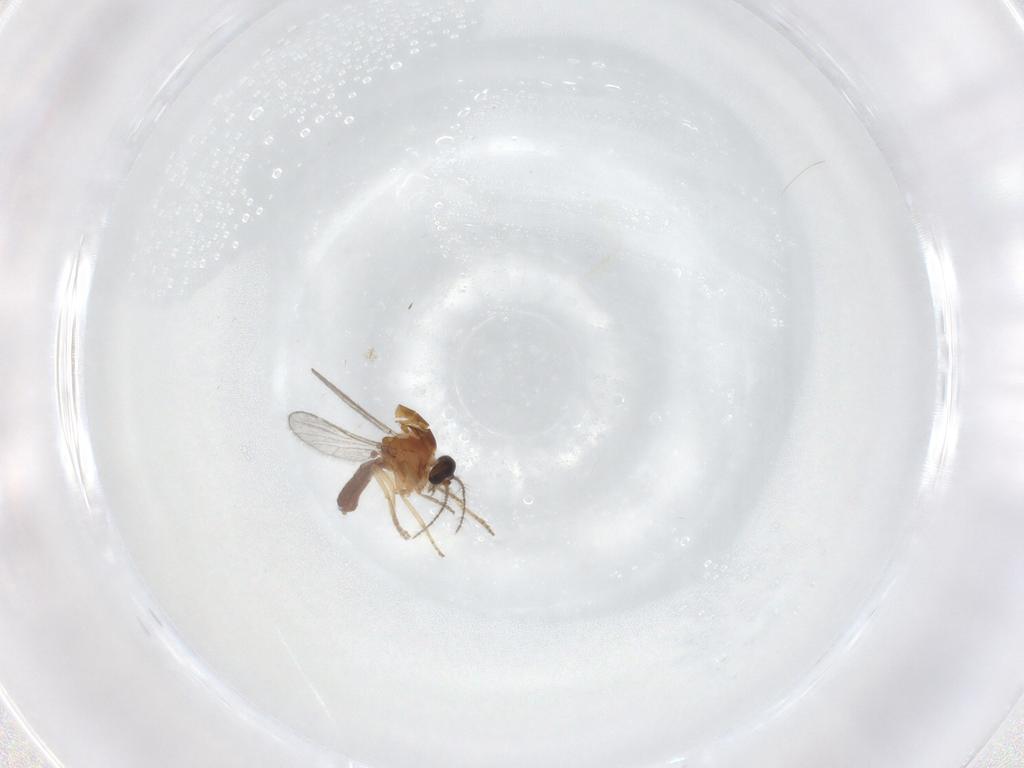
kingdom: Animalia
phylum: Arthropoda
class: Insecta
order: Diptera
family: Ceratopogonidae
